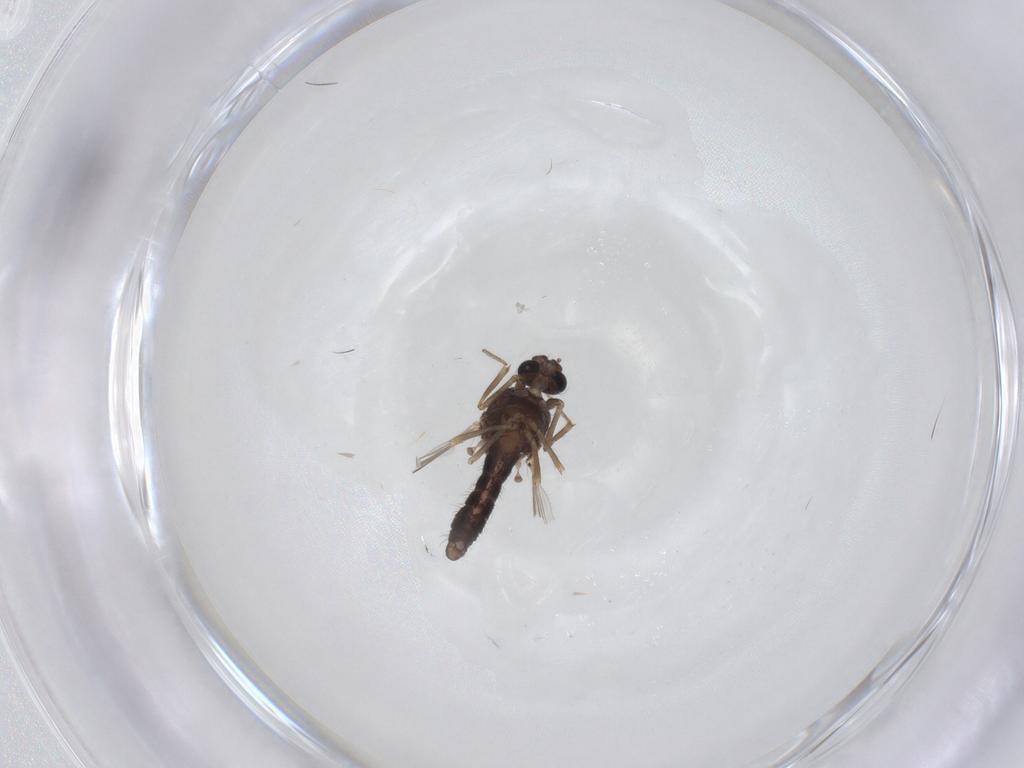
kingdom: Animalia
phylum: Arthropoda
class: Insecta
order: Diptera
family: Ceratopogonidae
